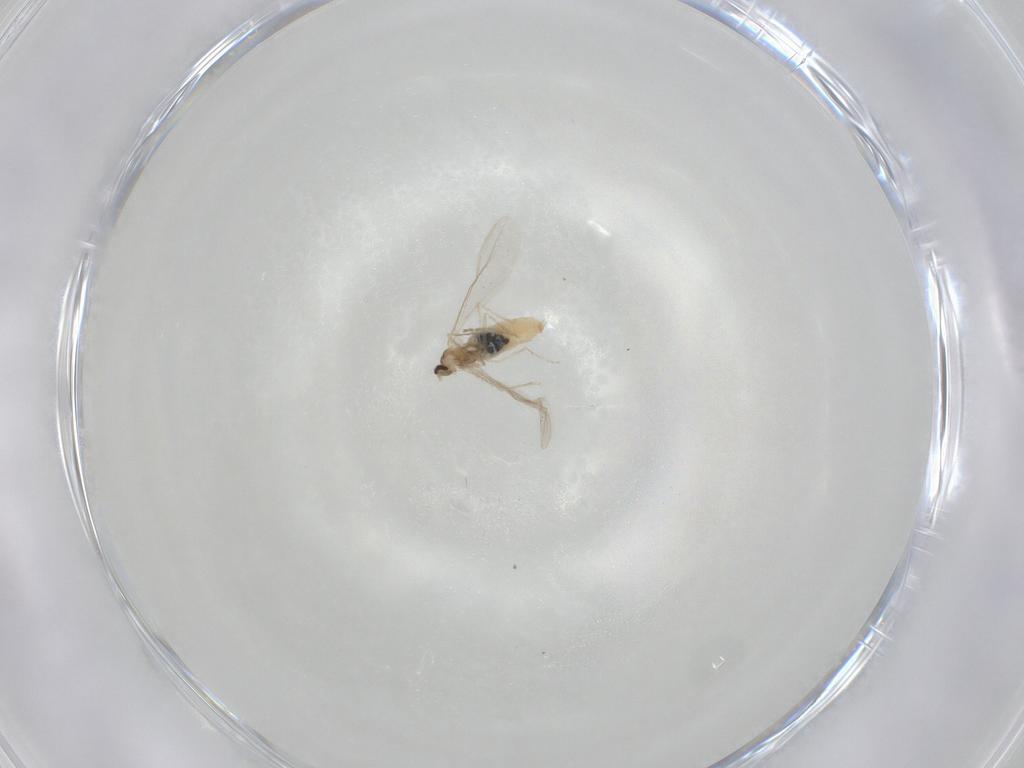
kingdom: Animalia
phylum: Arthropoda
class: Insecta
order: Diptera
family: Cecidomyiidae
